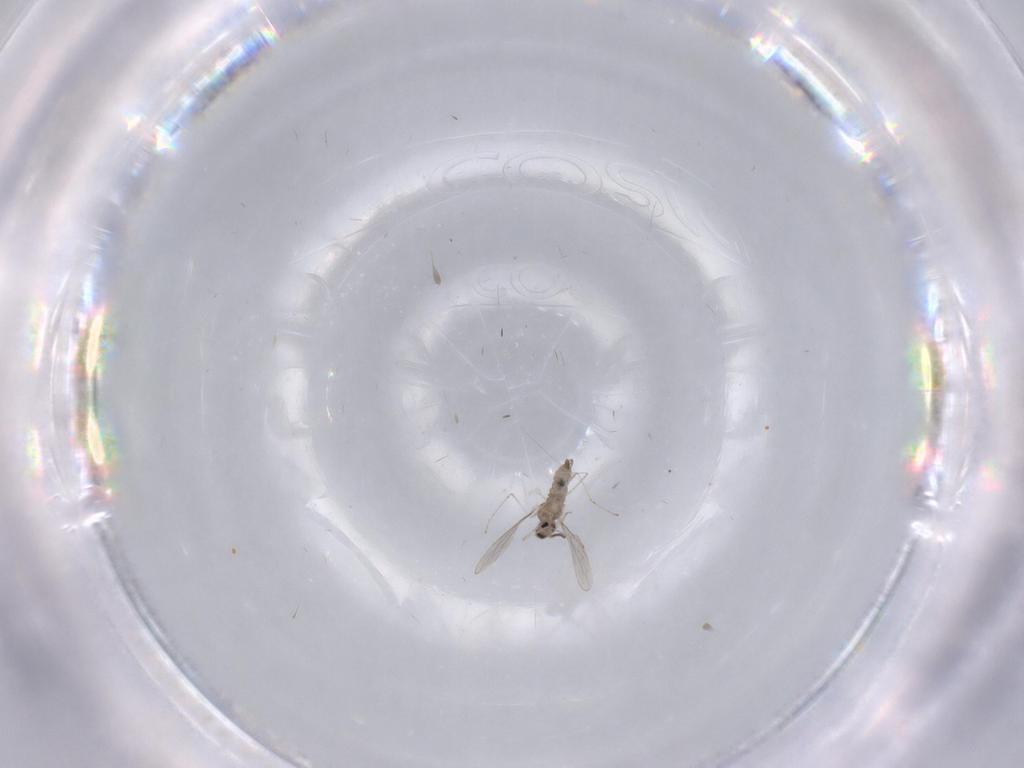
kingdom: Animalia
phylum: Arthropoda
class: Insecta
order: Diptera
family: Cecidomyiidae
